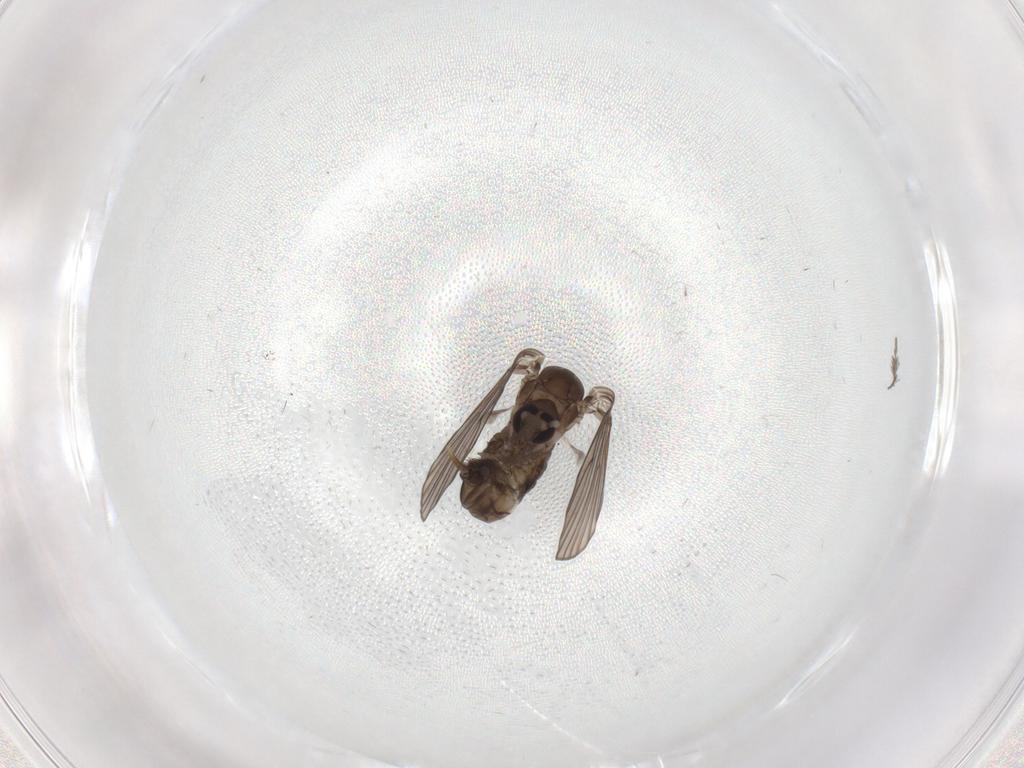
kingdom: Animalia
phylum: Arthropoda
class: Insecta
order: Diptera
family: Psychodidae
